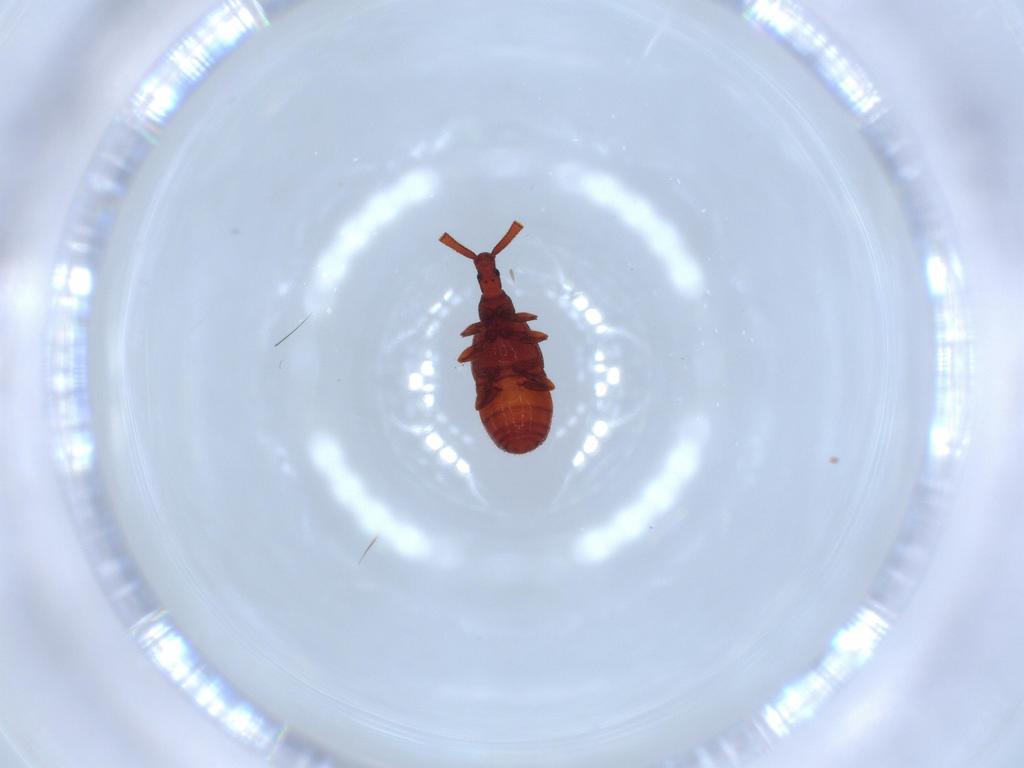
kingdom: Animalia
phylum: Arthropoda
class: Insecta
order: Coleoptera
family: Staphylinidae
